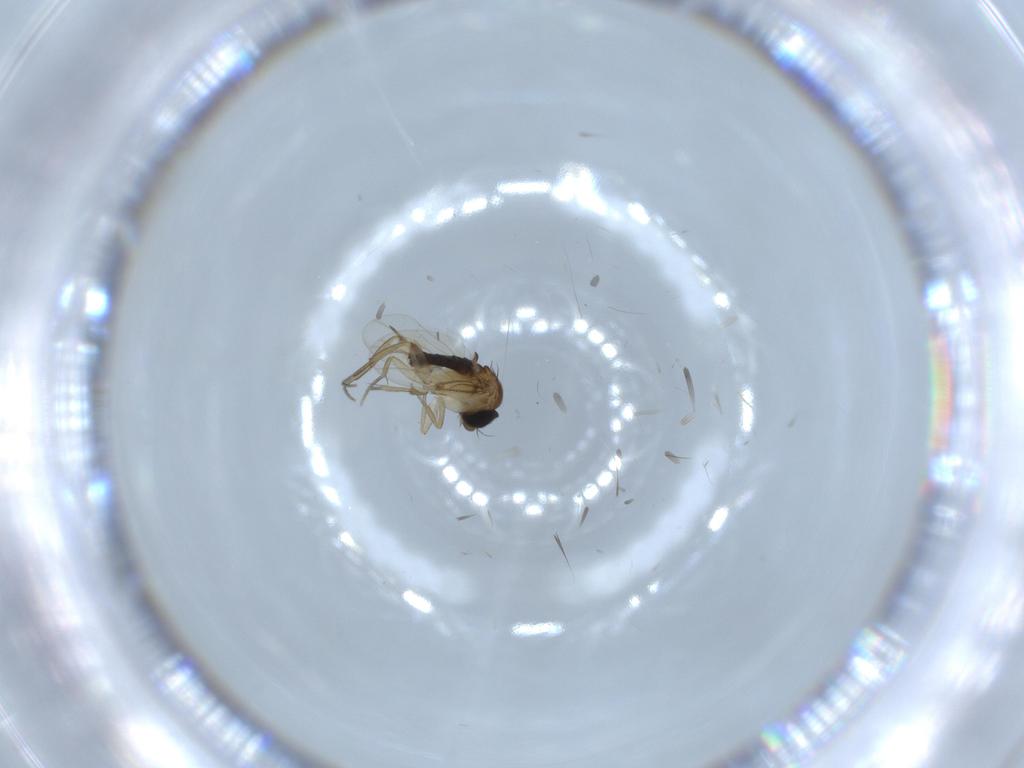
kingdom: Animalia
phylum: Arthropoda
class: Insecta
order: Diptera
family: Phoridae
